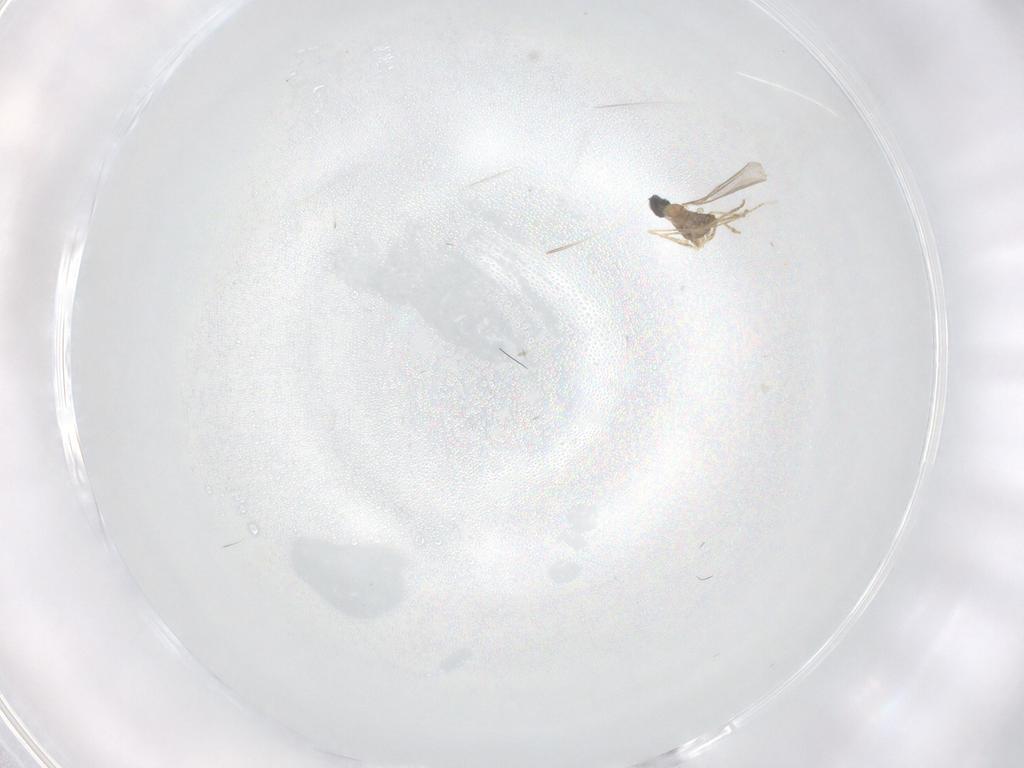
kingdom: Animalia
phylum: Arthropoda
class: Insecta
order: Diptera
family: Cecidomyiidae
